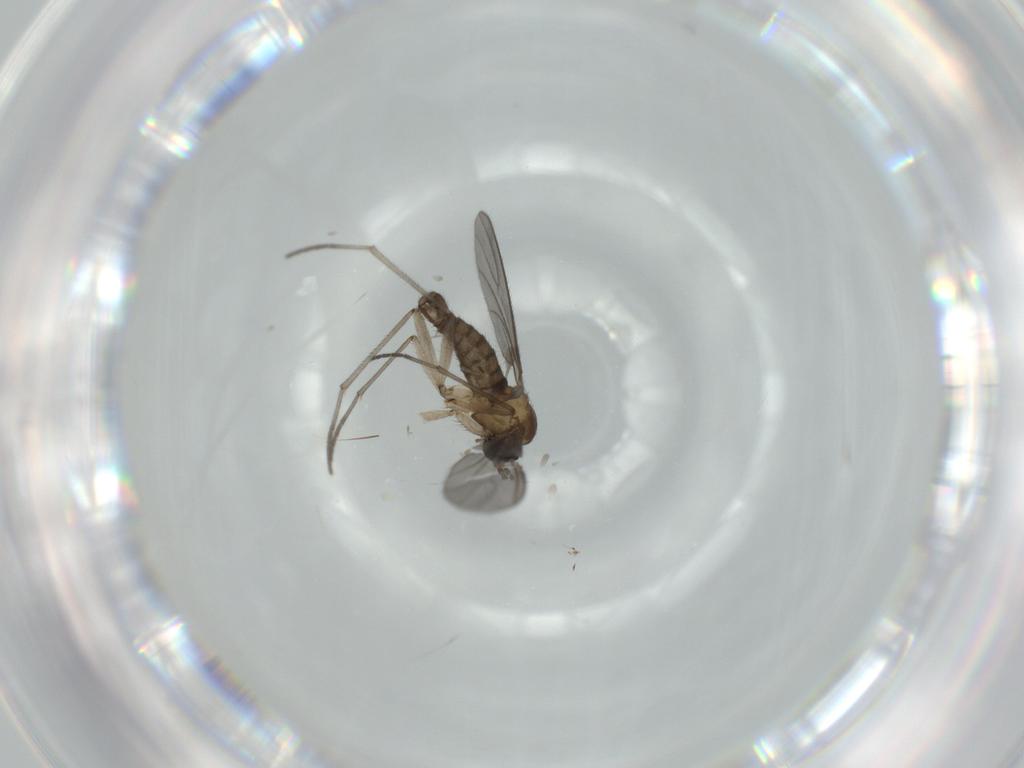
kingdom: Animalia
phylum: Arthropoda
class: Insecta
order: Diptera
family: Sciaridae
